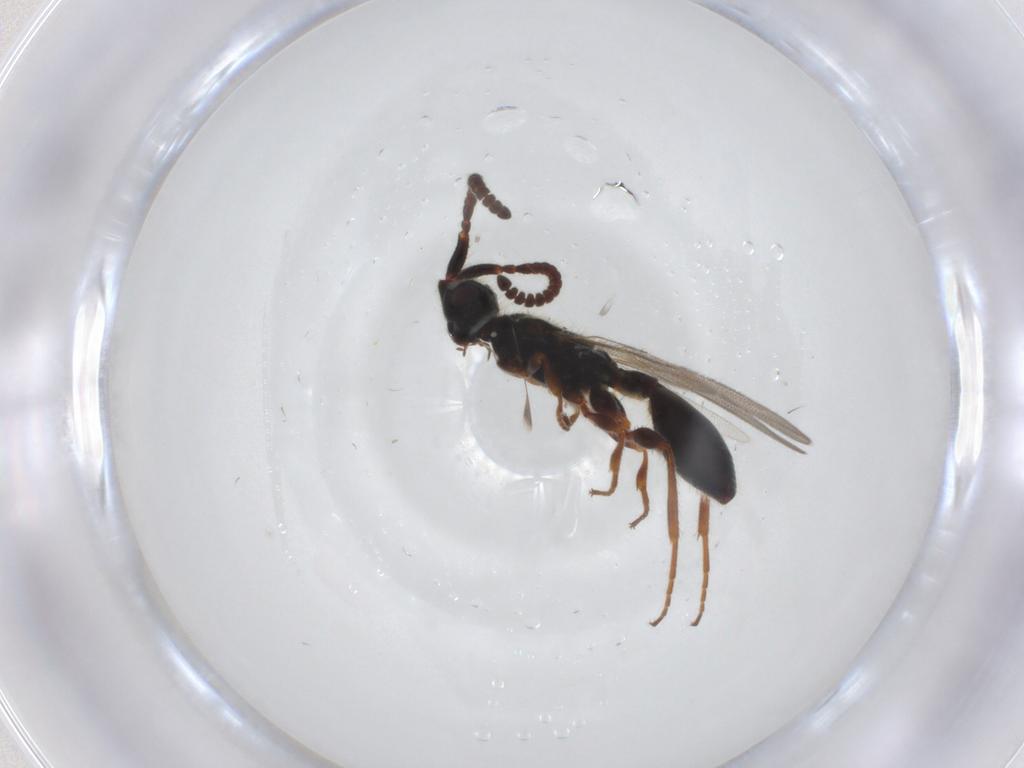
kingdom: Animalia
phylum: Arthropoda
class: Insecta
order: Hymenoptera
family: Diapriidae
